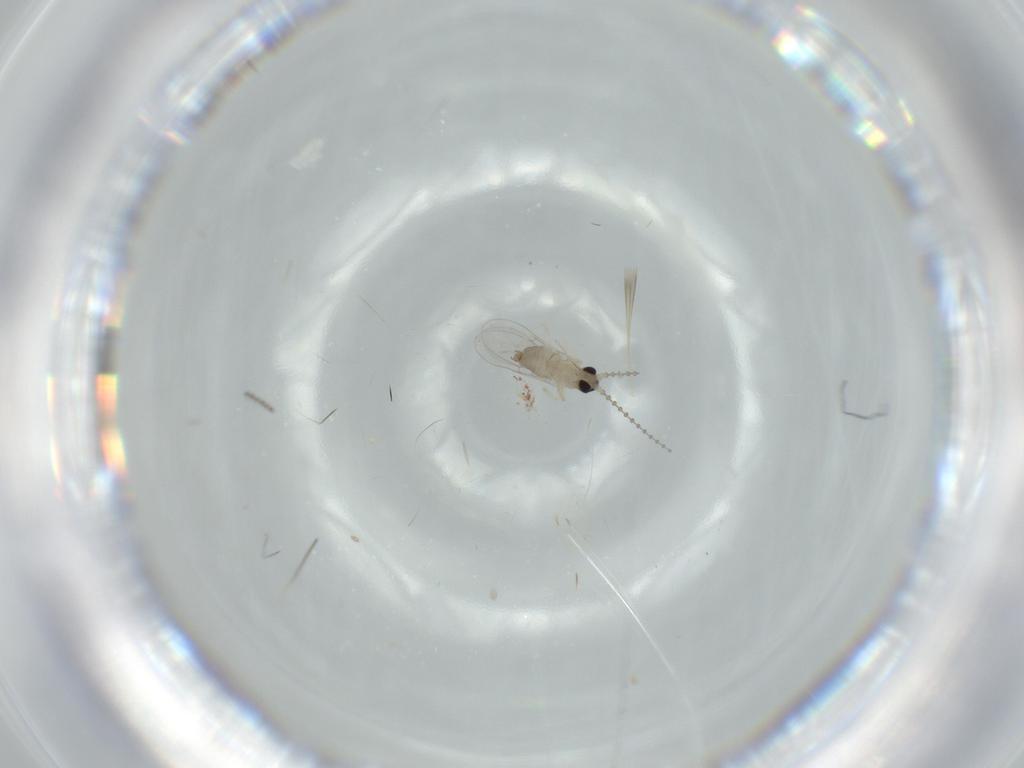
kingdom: Animalia
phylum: Arthropoda
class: Insecta
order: Diptera
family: Cecidomyiidae
